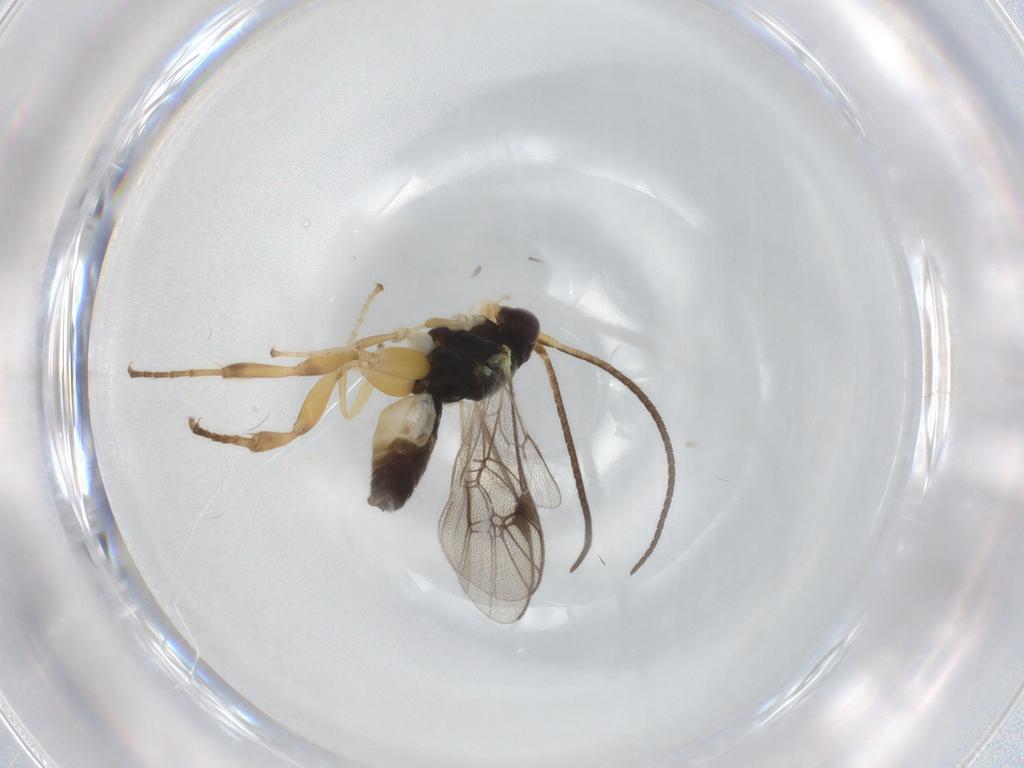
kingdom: Animalia
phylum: Arthropoda
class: Insecta
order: Hymenoptera
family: Ichneumonidae
